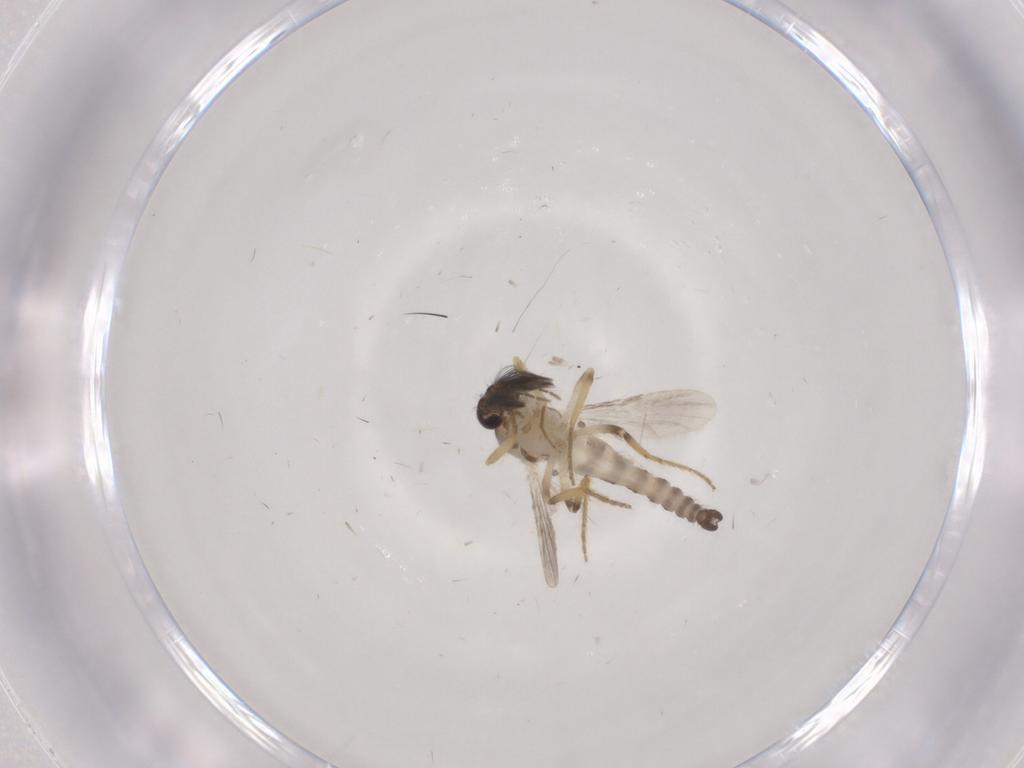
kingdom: Animalia
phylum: Arthropoda
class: Insecta
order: Diptera
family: Ceratopogonidae
